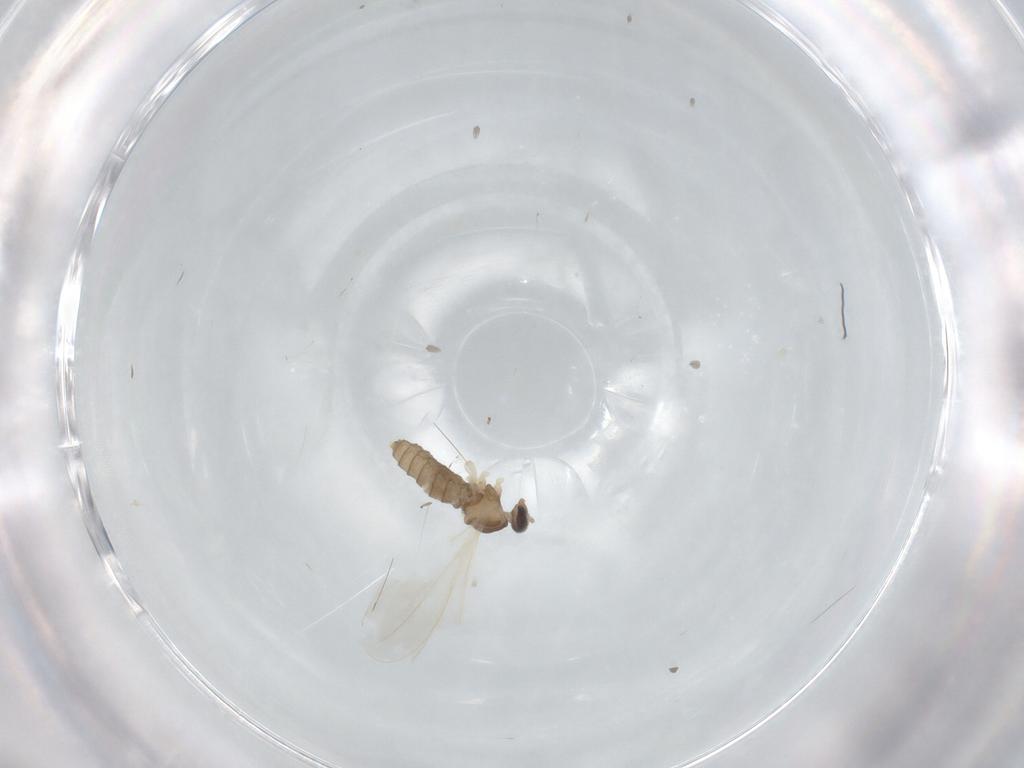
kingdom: Animalia
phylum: Arthropoda
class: Insecta
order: Diptera
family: Cecidomyiidae
